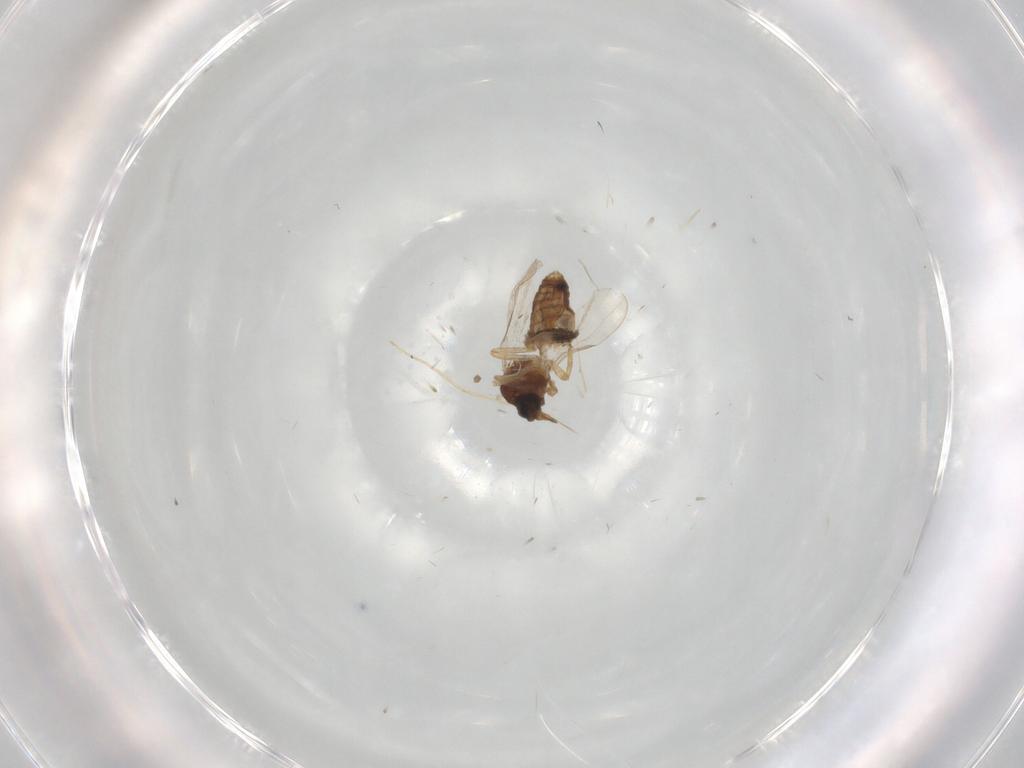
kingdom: Animalia
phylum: Arthropoda
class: Insecta
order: Diptera
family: Ceratopogonidae
